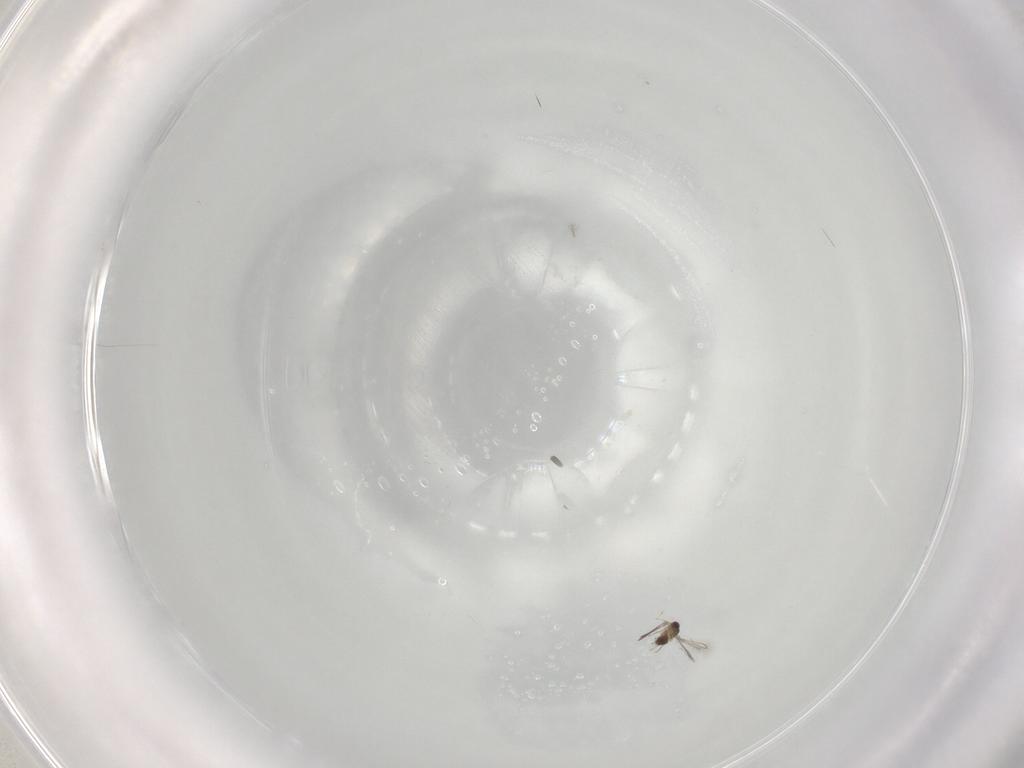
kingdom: Animalia
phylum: Arthropoda
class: Insecta
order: Hymenoptera
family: Mymaridae
